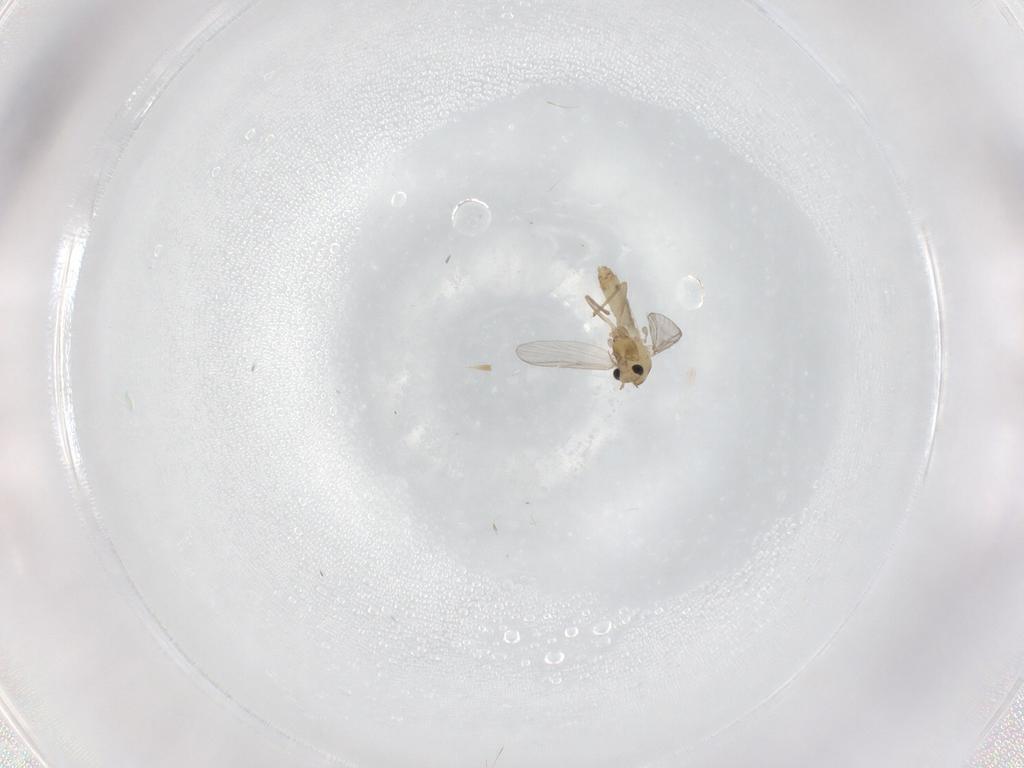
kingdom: Animalia
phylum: Arthropoda
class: Insecta
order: Diptera
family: Chironomidae
